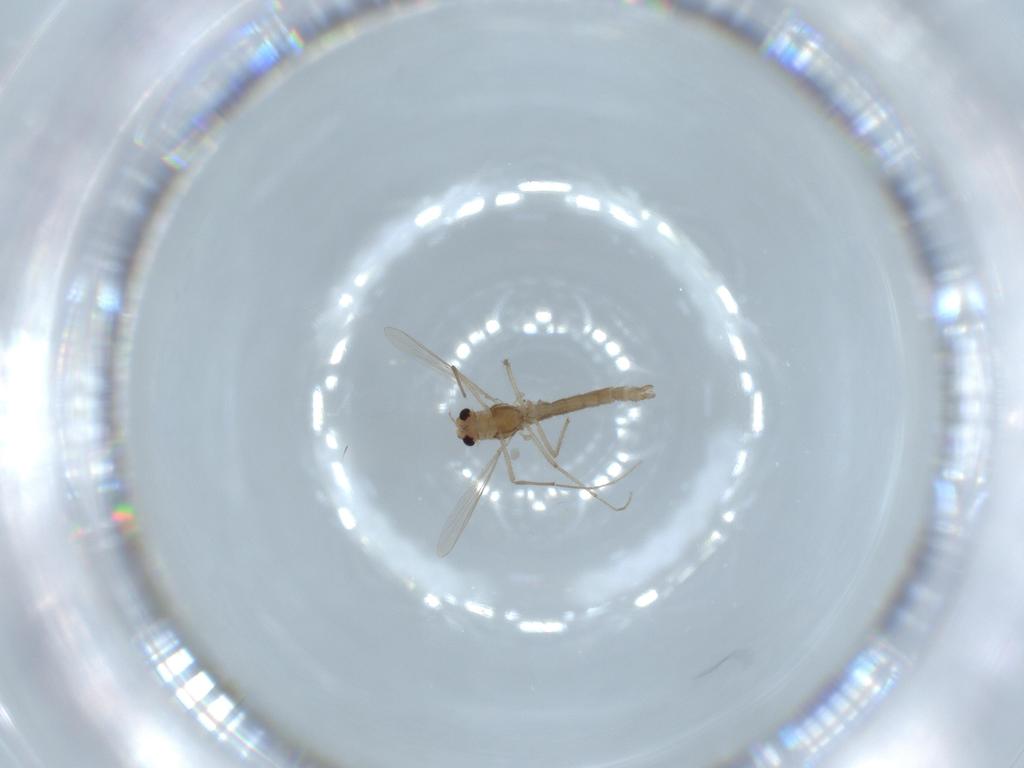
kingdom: Animalia
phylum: Arthropoda
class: Insecta
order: Diptera
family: Chironomidae
